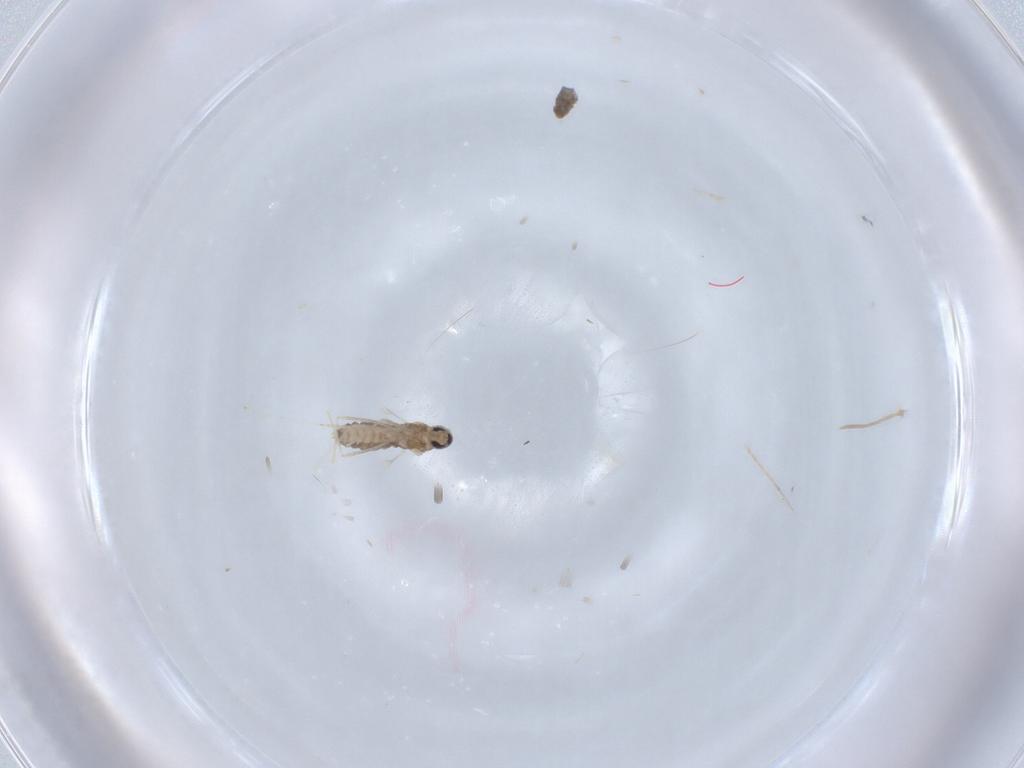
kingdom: Animalia
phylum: Arthropoda
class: Insecta
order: Diptera
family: Cecidomyiidae
